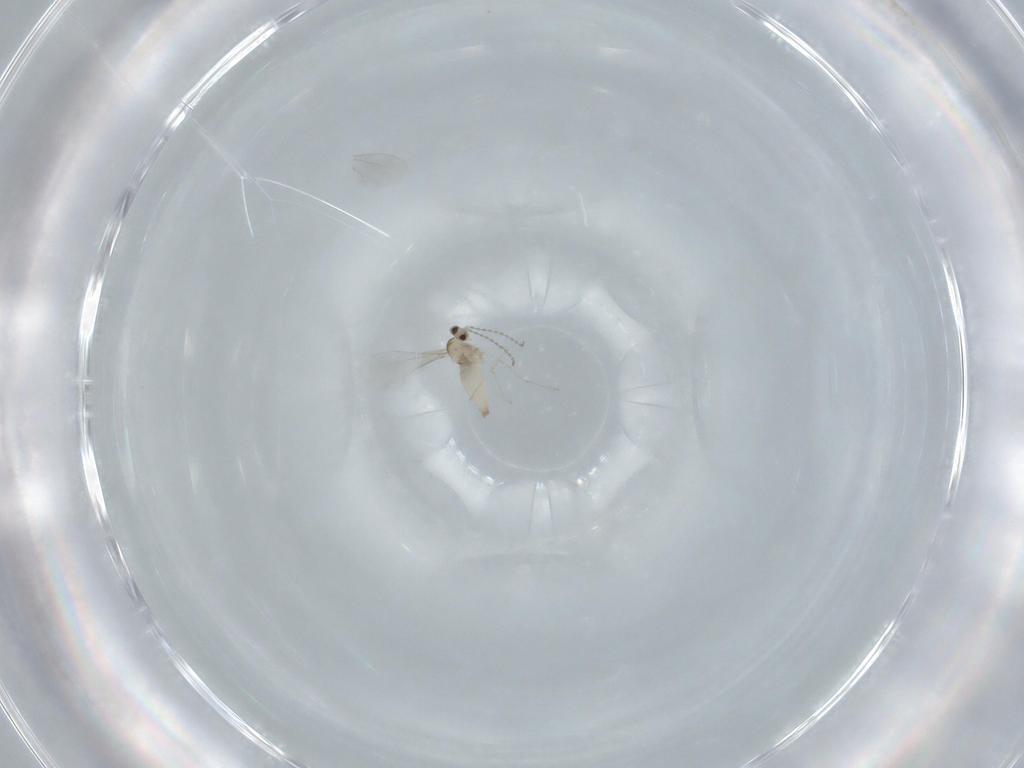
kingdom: Animalia
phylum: Arthropoda
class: Insecta
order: Diptera
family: Cecidomyiidae
